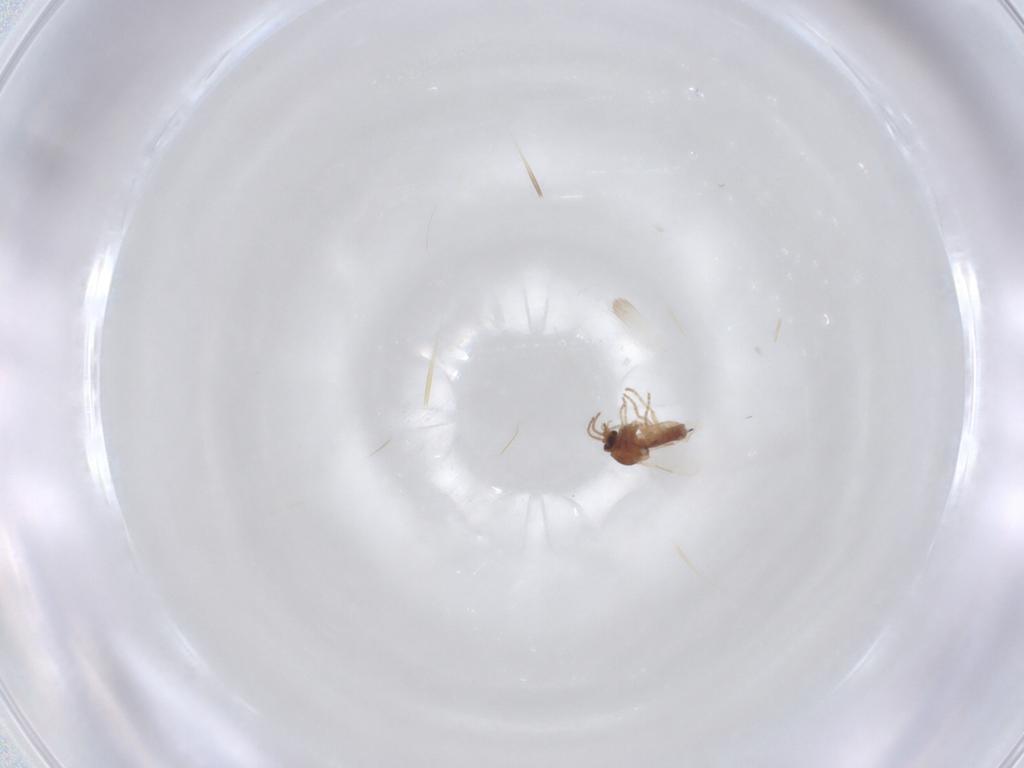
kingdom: Animalia
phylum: Arthropoda
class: Insecta
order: Diptera
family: Ceratopogonidae
